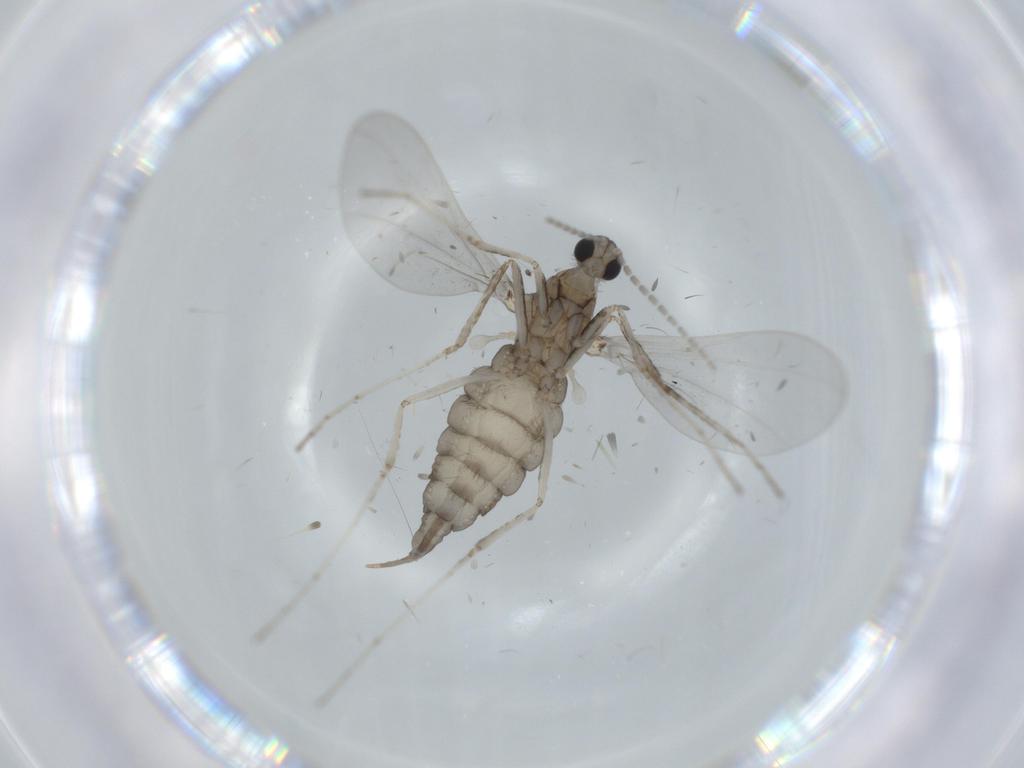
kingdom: Animalia
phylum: Arthropoda
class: Insecta
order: Diptera
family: Cecidomyiidae
